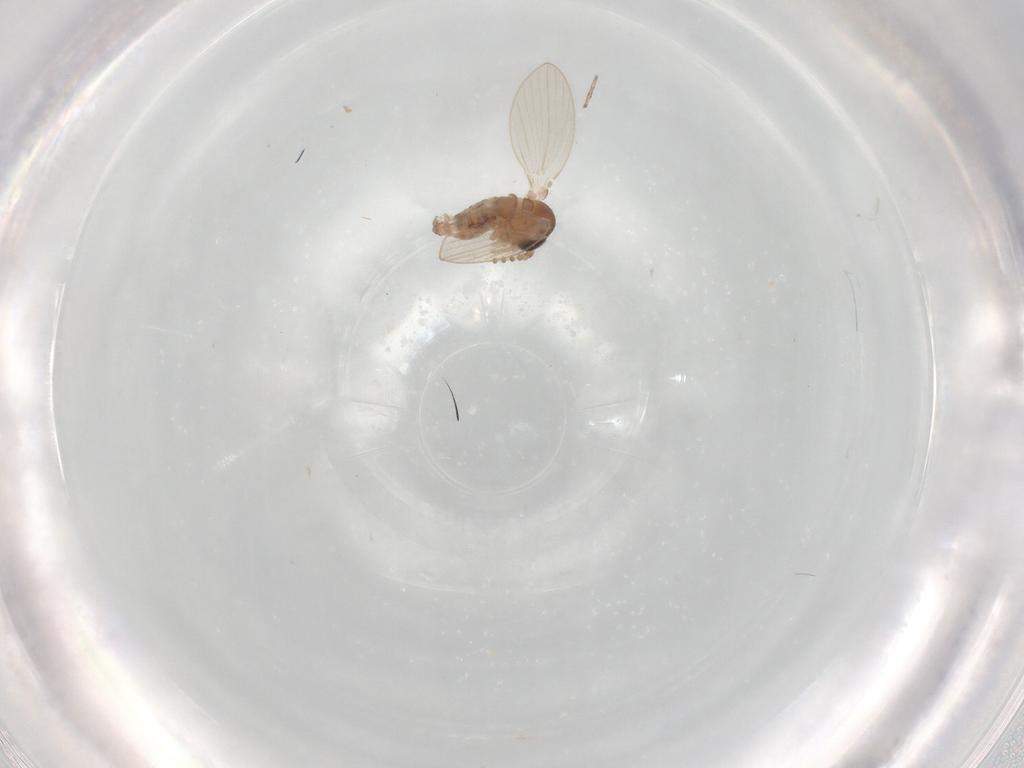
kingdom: Animalia
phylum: Arthropoda
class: Insecta
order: Diptera
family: Psychodidae
